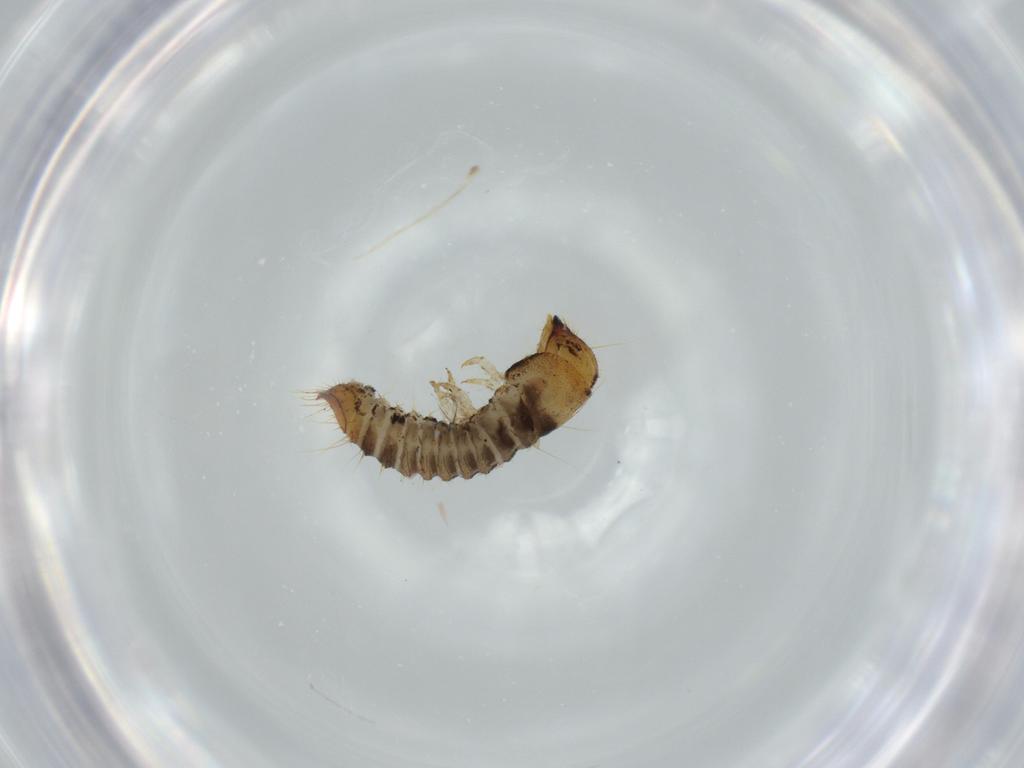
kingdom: Animalia
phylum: Arthropoda
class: Insecta
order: Coleoptera
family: Lymexylidae
